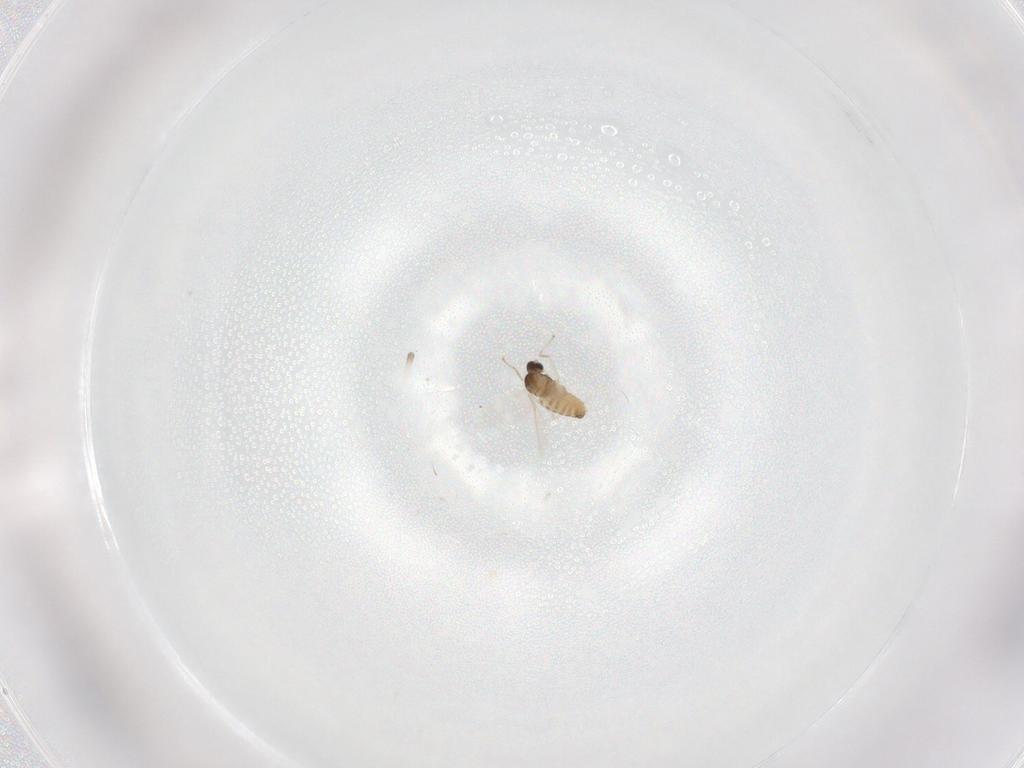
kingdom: Animalia
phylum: Arthropoda
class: Insecta
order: Diptera
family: Cecidomyiidae
